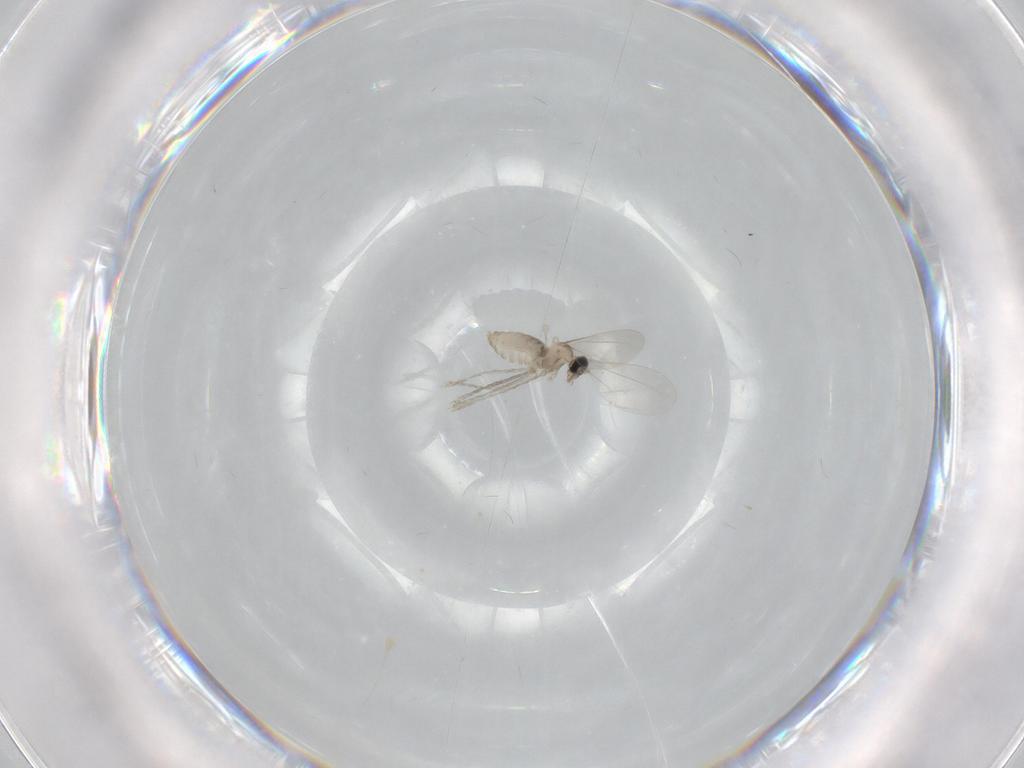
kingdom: Animalia
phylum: Arthropoda
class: Insecta
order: Diptera
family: Cecidomyiidae
